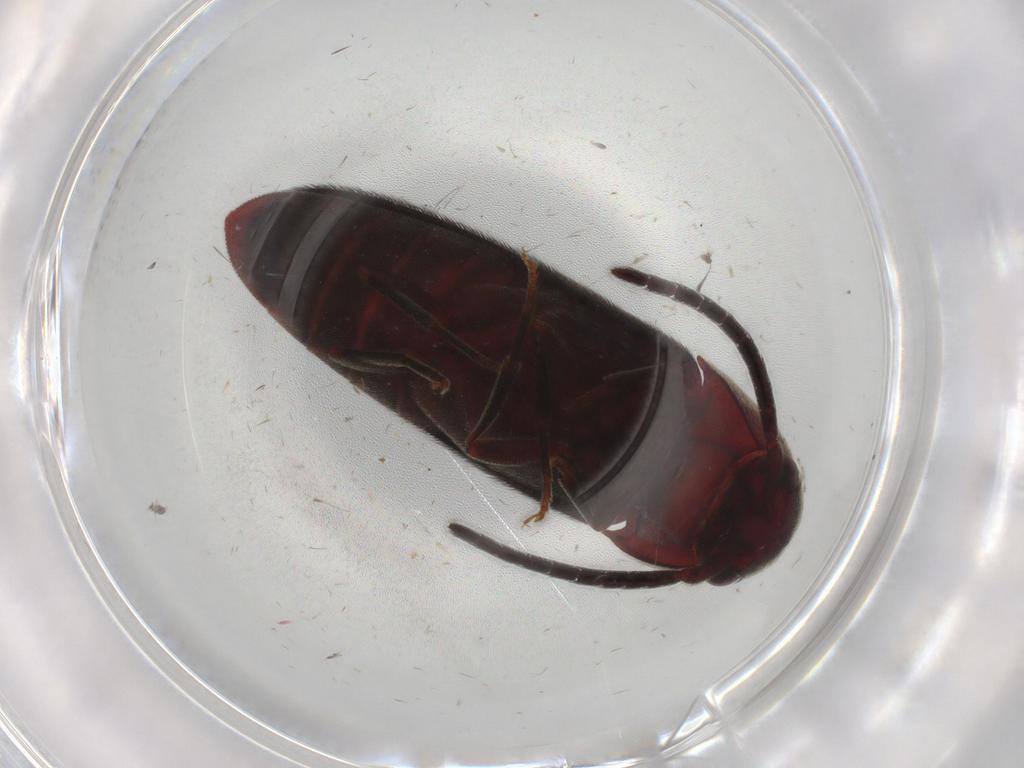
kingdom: Animalia
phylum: Arthropoda
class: Insecta
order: Coleoptera
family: Eucnemidae
